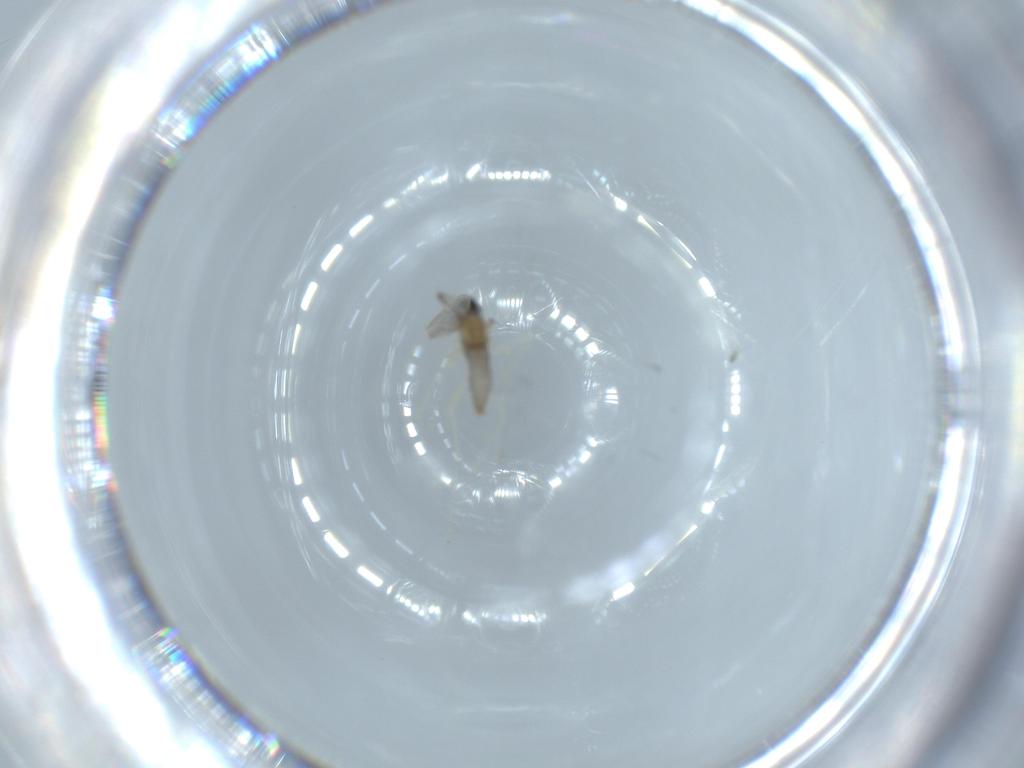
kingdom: Animalia
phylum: Arthropoda
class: Insecta
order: Diptera
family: Cecidomyiidae
